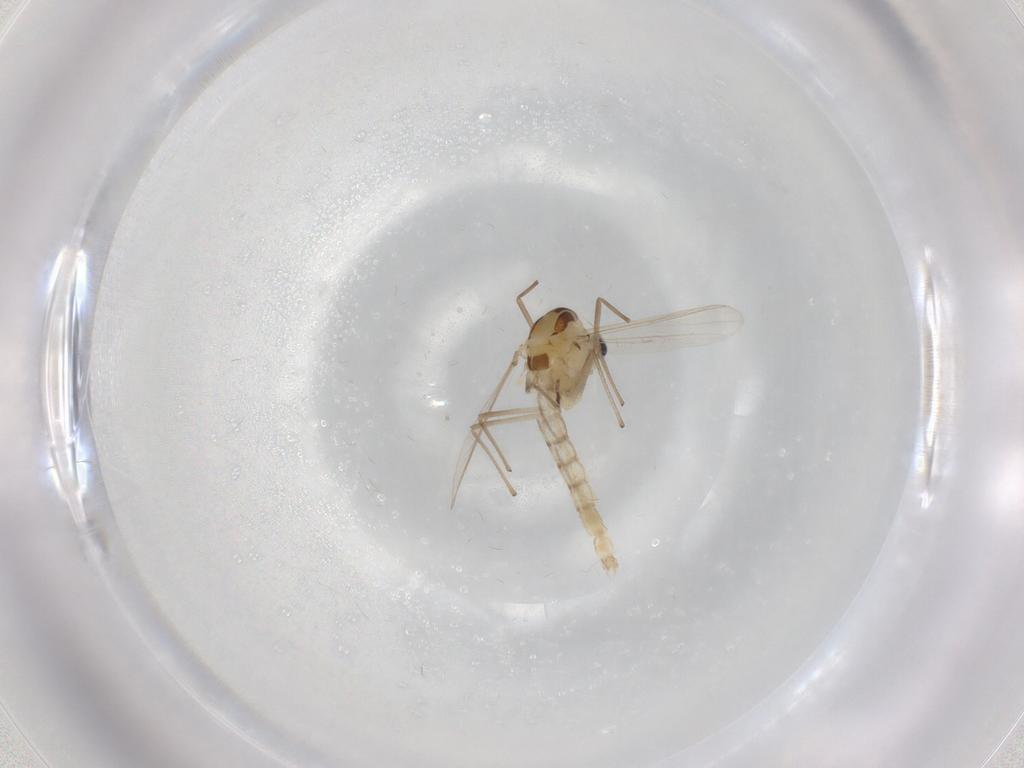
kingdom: Animalia
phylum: Arthropoda
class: Insecta
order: Diptera
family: Chironomidae
